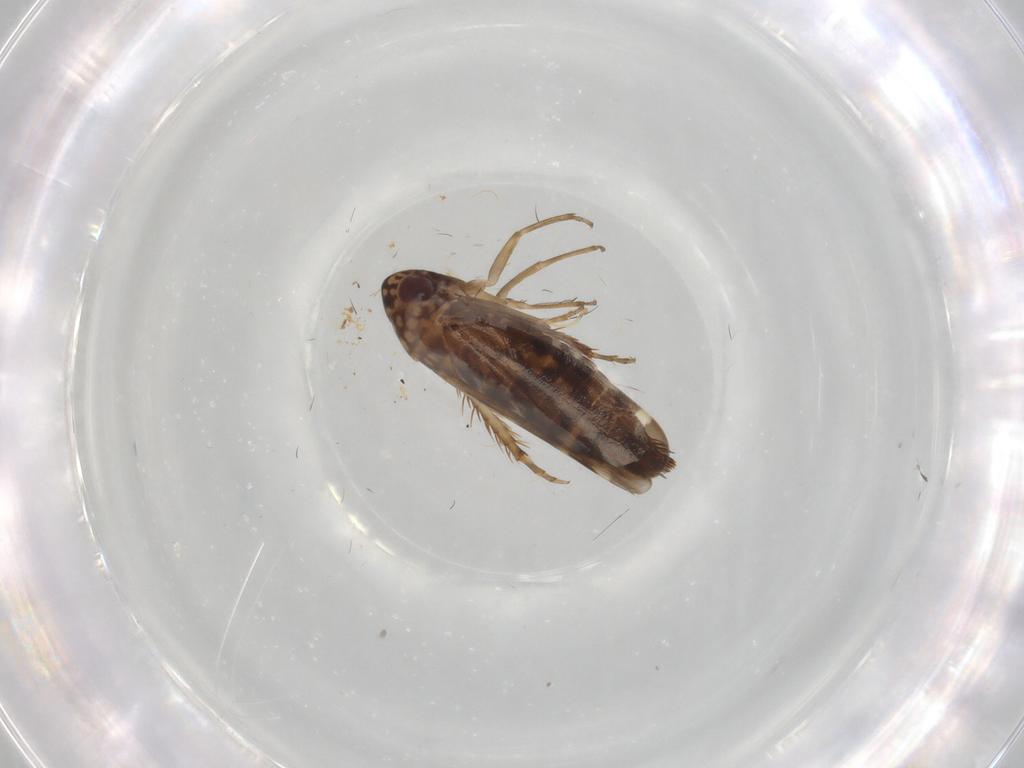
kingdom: Animalia
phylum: Arthropoda
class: Insecta
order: Hemiptera
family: Cicadellidae
